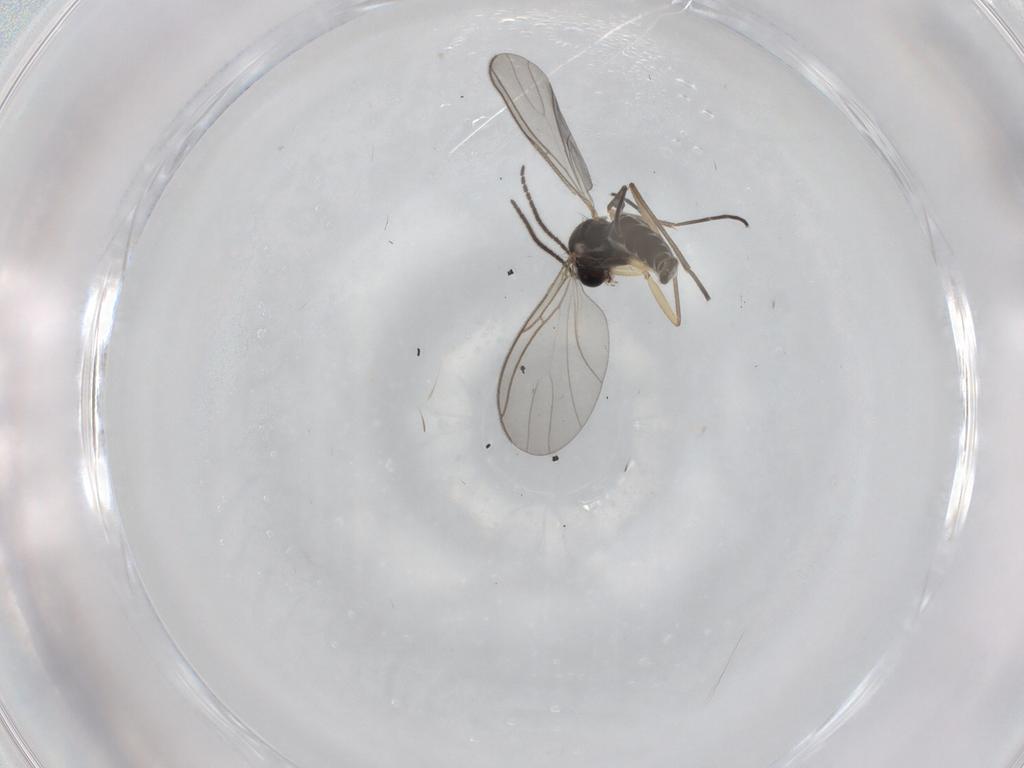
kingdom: Animalia
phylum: Arthropoda
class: Insecta
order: Diptera
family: Sciaridae
